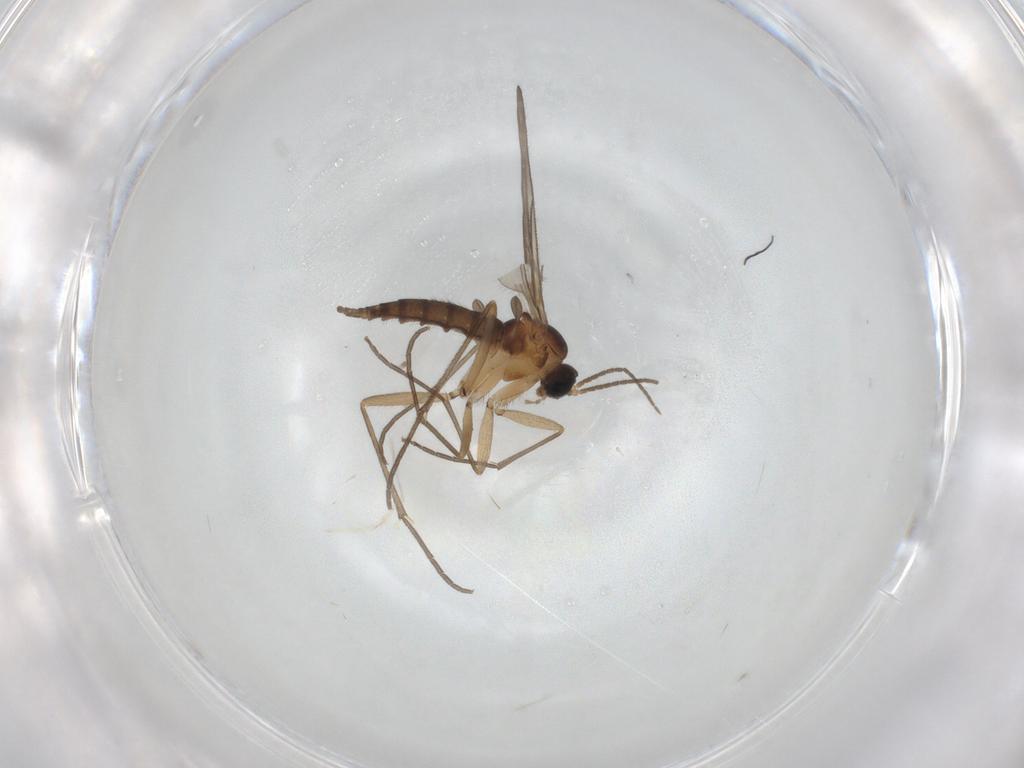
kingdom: Animalia
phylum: Arthropoda
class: Insecta
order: Diptera
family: Sciaridae
